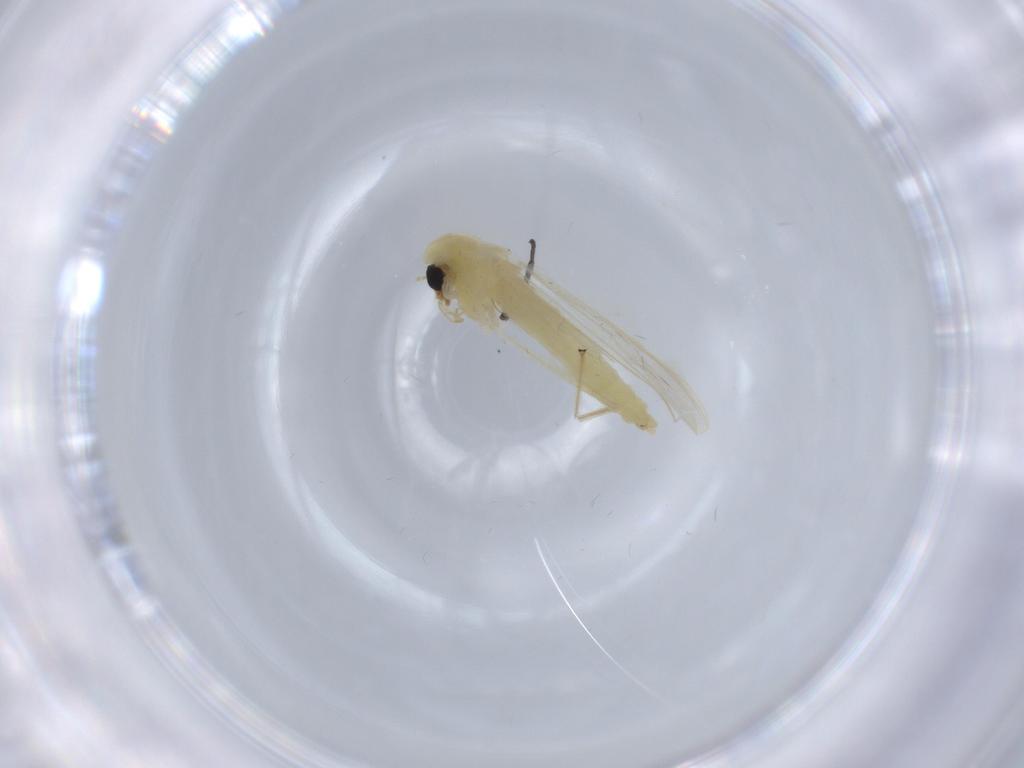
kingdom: Animalia
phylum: Arthropoda
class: Insecta
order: Diptera
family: Chironomidae
